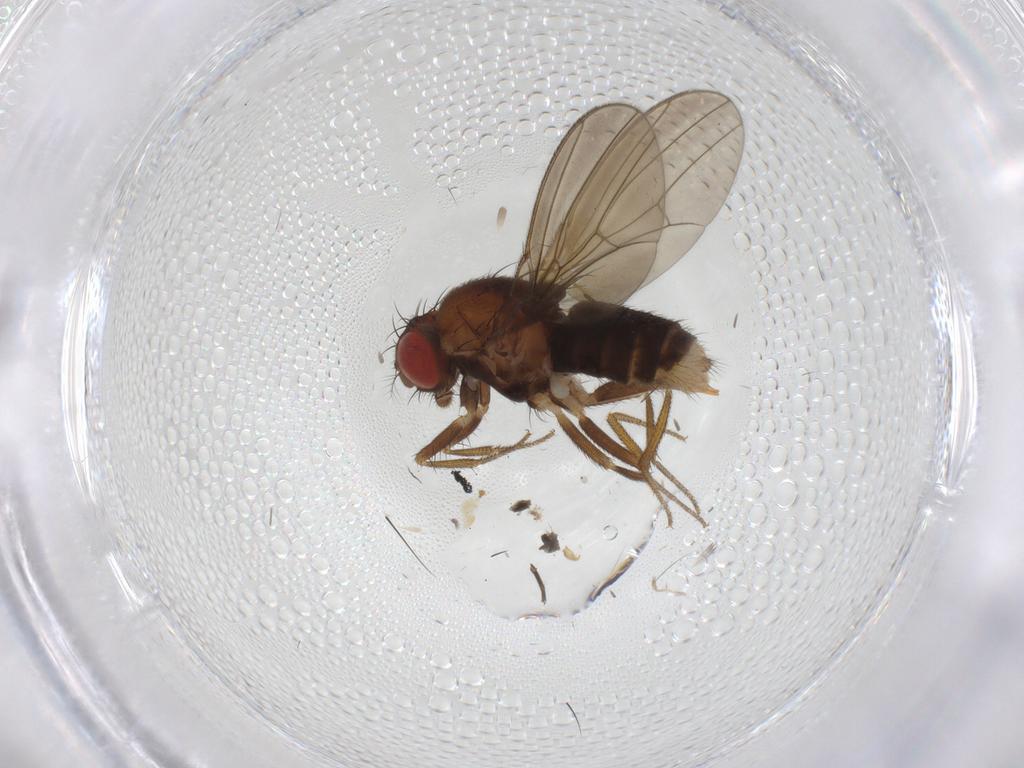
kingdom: Animalia
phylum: Arthropoda
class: Insecta
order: Diptera
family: Drosophilidae
